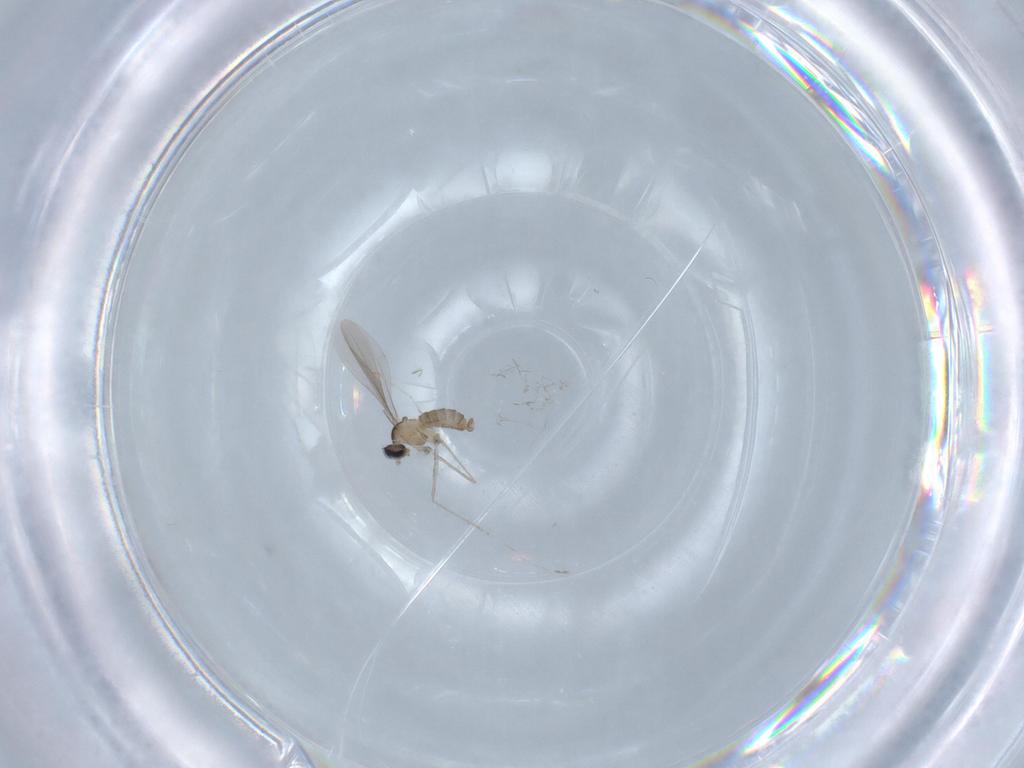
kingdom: Animalia
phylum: Arthropoda
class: Insecta
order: Diptera
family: Cecidomyiidae
